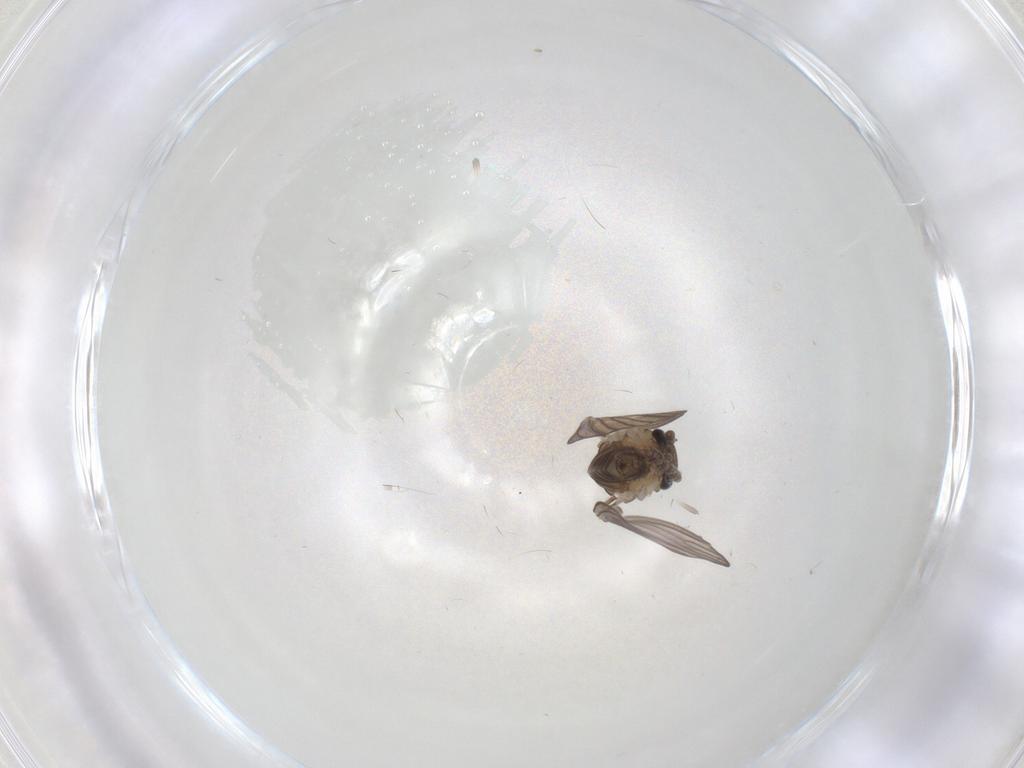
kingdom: Animalia
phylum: Arthropoda
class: Insecta
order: Diptera
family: Psychodidae
